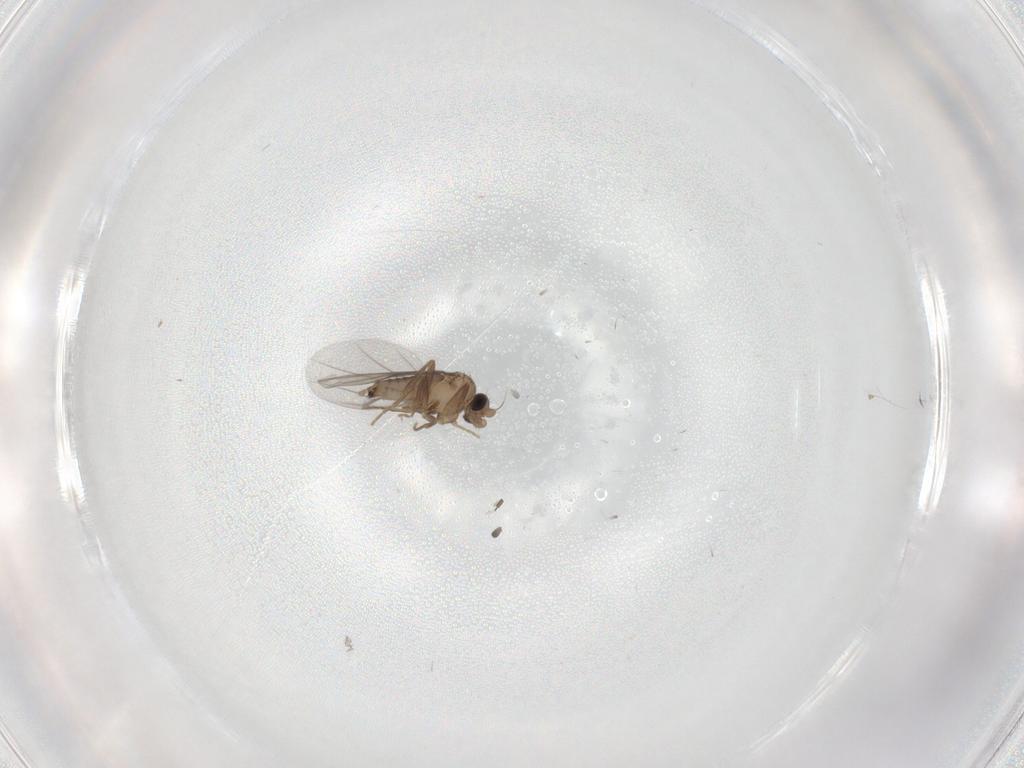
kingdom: Animalia
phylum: Arthropoda
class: Insecta
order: Diptera
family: Cecidomyiidae
